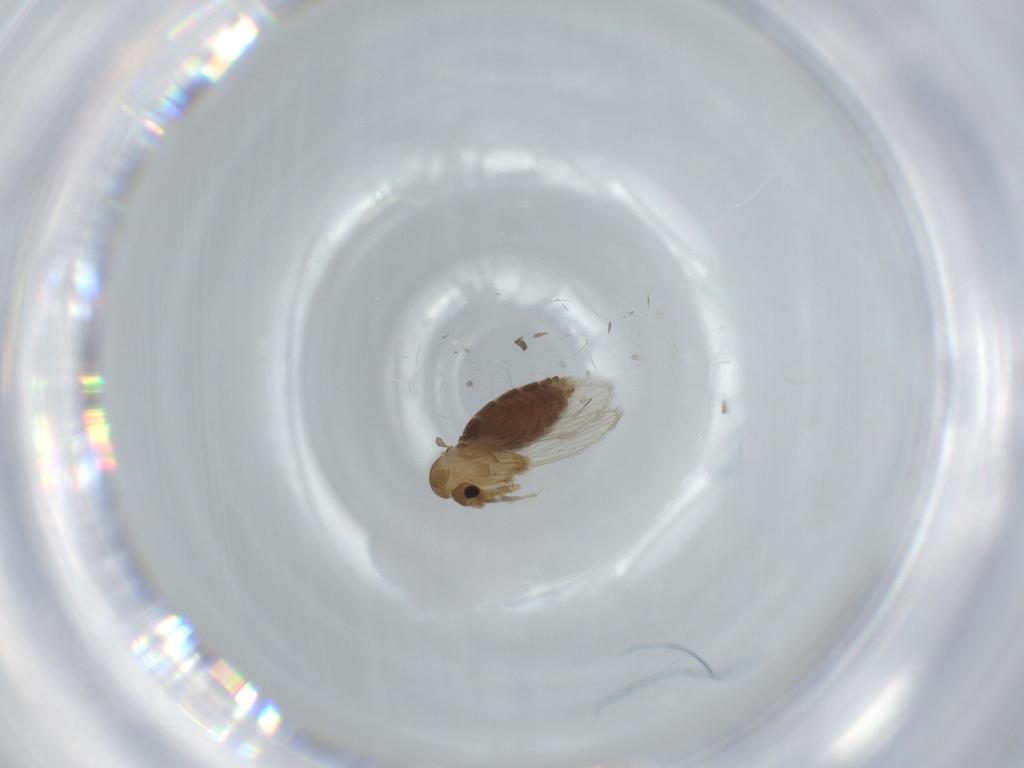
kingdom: Animalia
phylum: Arthropoda
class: Insecta
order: Diptera
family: Psychodidae
